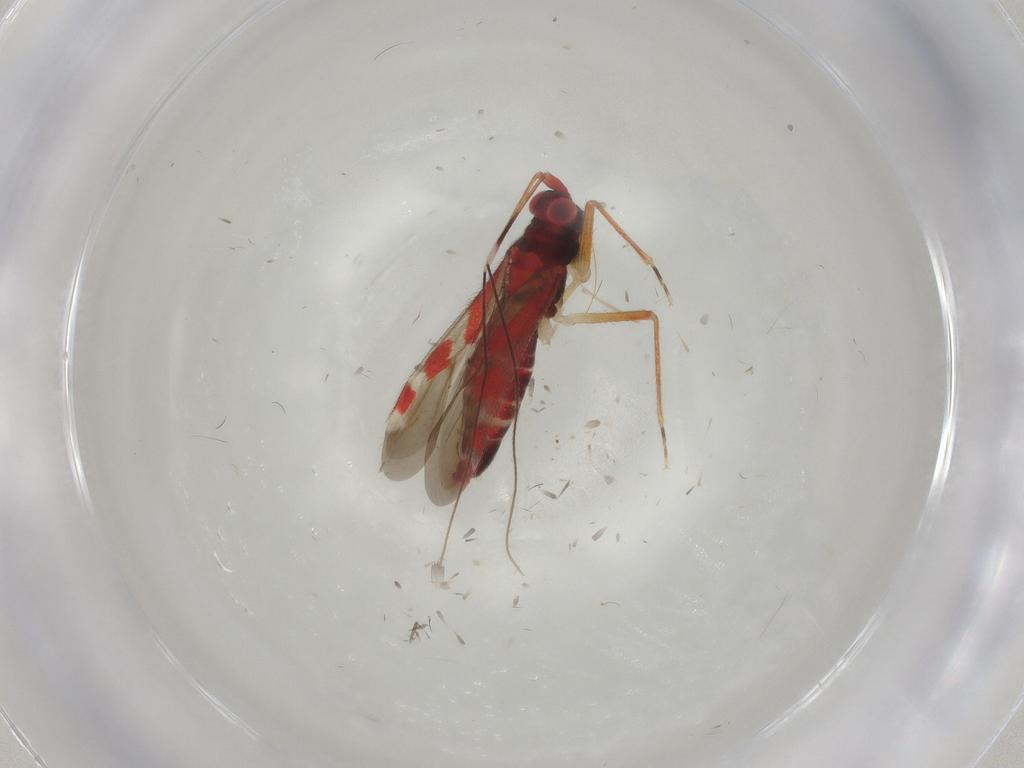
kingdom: Animalia
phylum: Arthropoda
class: Insecta
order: Hemiptera
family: Miridae
